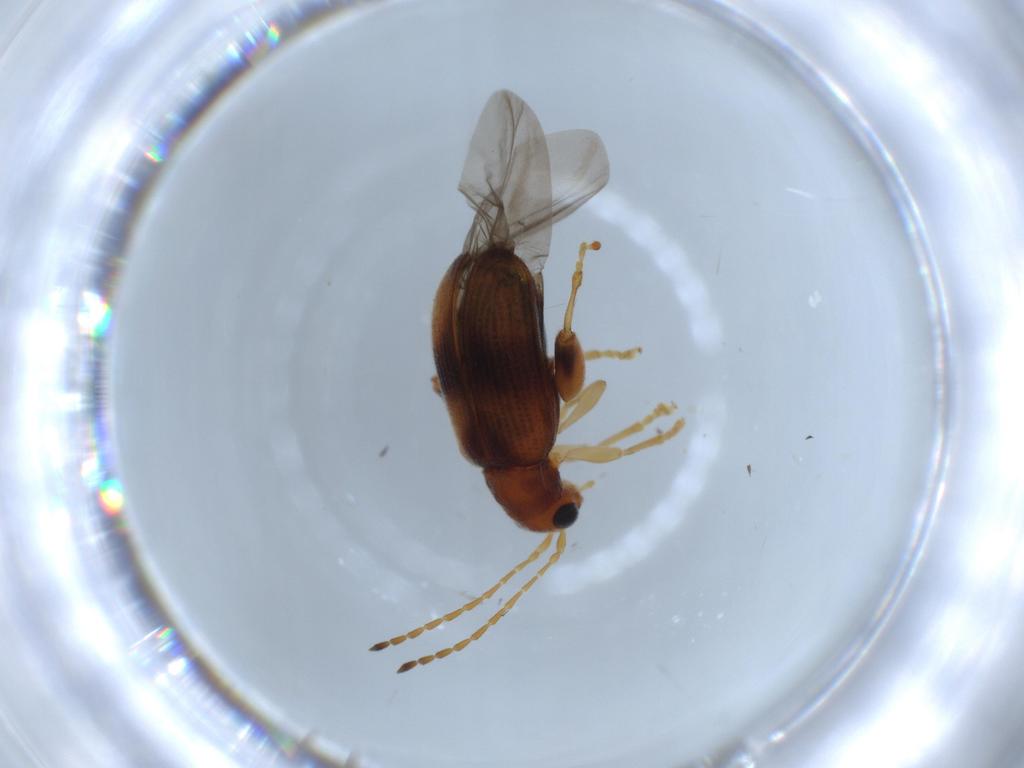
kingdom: Animalia
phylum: Arthropoda
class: Insecta
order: Coleoptera
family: Chrysomelidae
